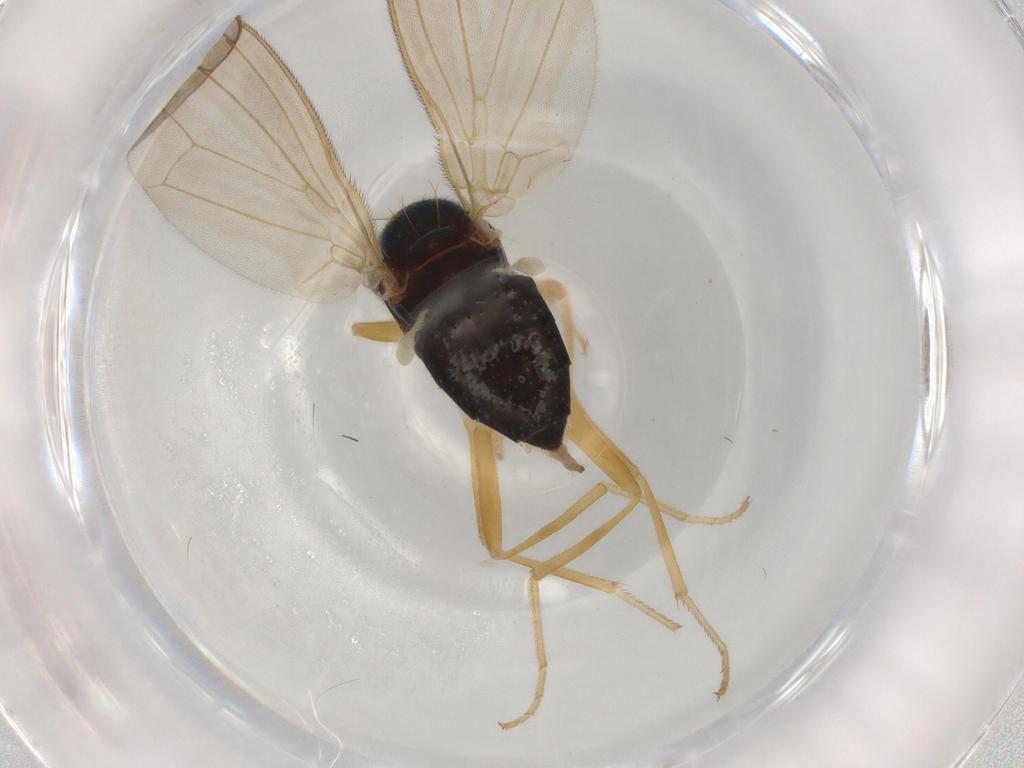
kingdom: Animalia
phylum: Arthropoda
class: Insecta
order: Diptera
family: Psilidae
